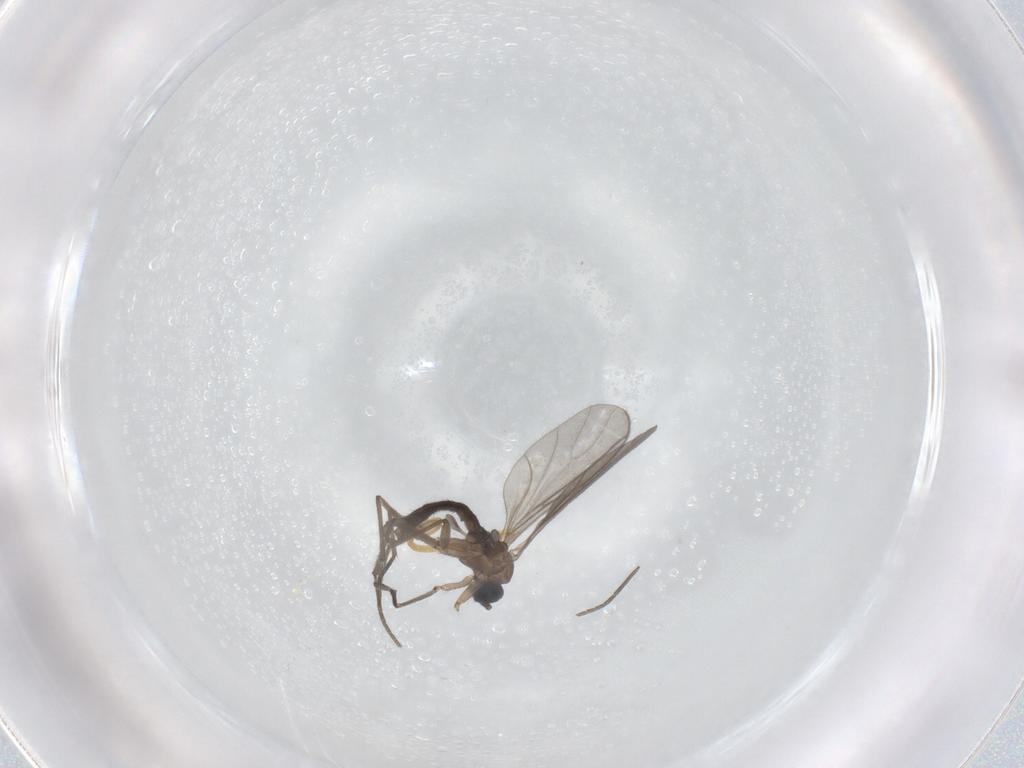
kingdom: Animalia
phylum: Arthropoda
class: Insecta
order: Diptera
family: Sciaridae
